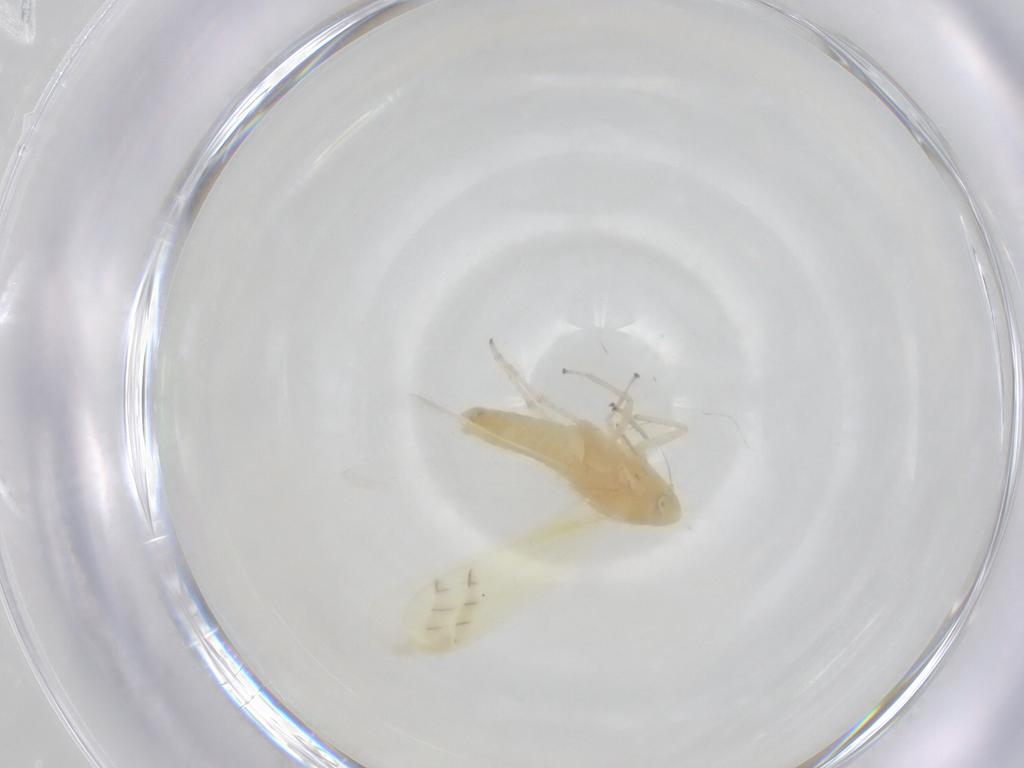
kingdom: Animalia
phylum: Arthropoda
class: Insecta
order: Hemiptera
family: Cicadellidae
